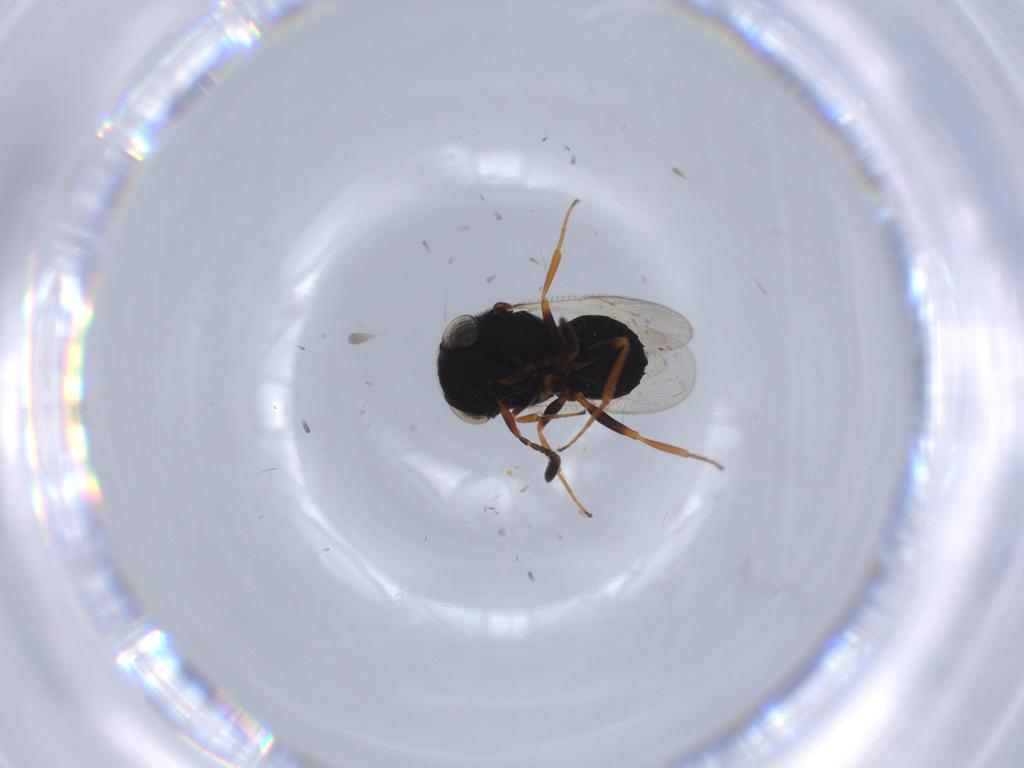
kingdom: Animalia
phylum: Arthropoda
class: Insecta
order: Hymenoptera
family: Scelionidae
